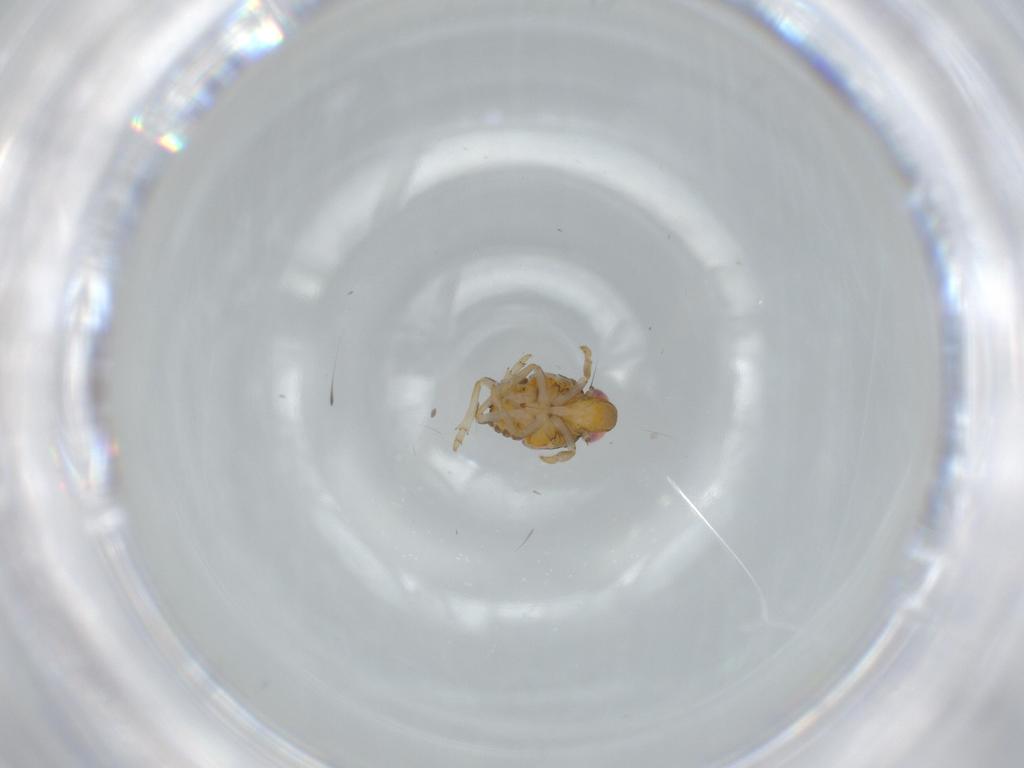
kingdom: Animalia
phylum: Arthropoda
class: Insecta
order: Hemiptera
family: Issidae
